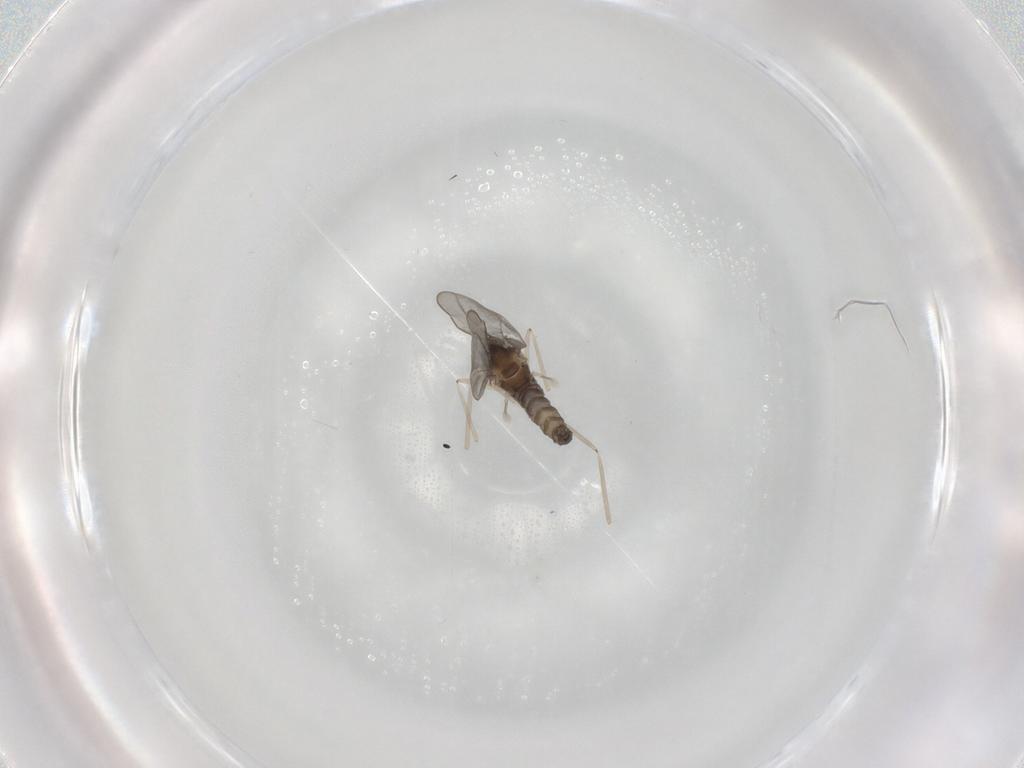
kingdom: Animalia
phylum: Arthropoda
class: Insecta
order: Diptera
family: Cecidomyiidae
